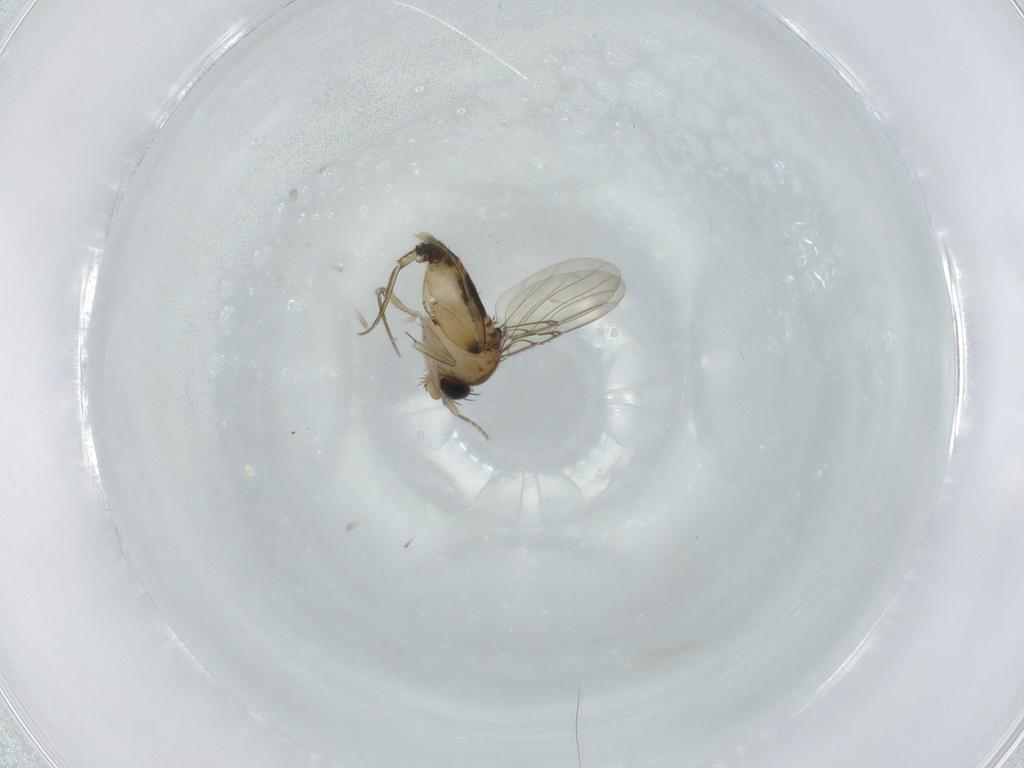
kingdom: Animalia
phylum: Arthropoda
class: Insecta
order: Diptera
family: Phoridae
